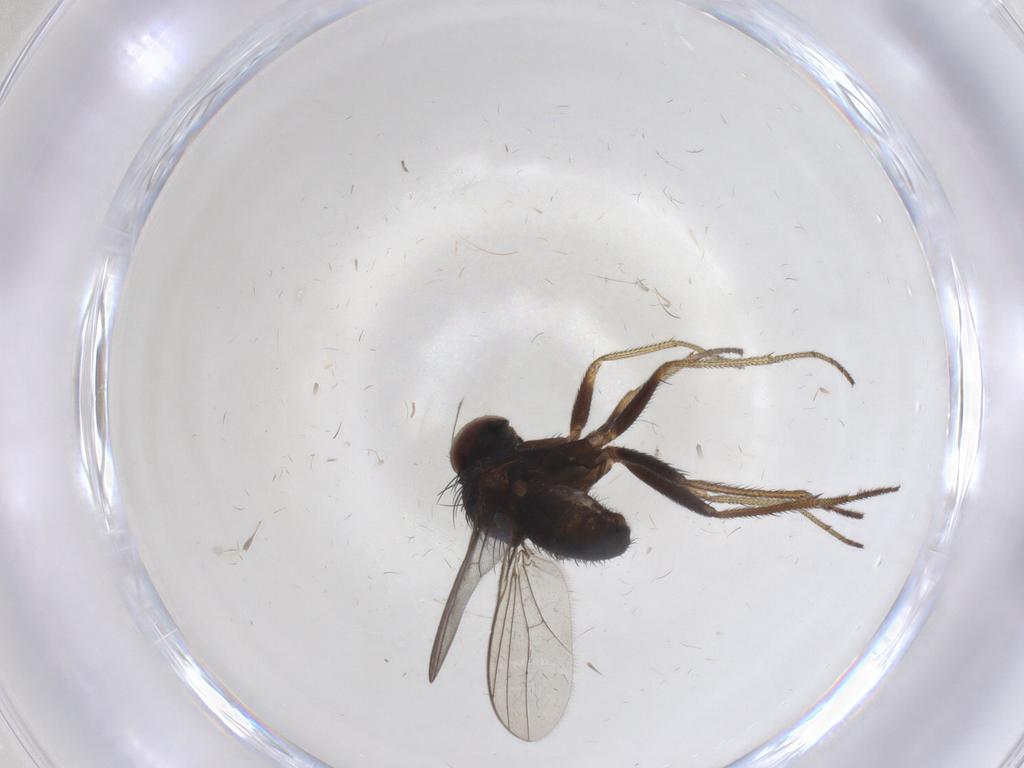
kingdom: Animalia
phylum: Arthropoda
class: Insecta
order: Diptera
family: Dolichopodidae
